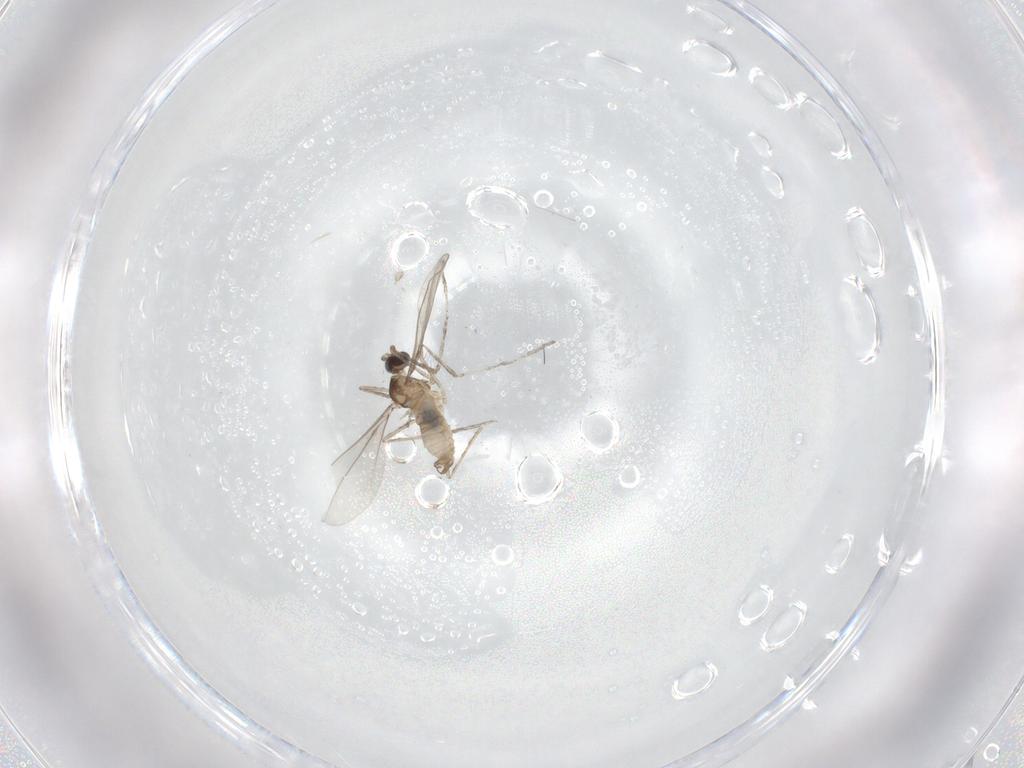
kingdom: Animalia
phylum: Arthropoda
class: Insecta
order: Diptera
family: Cecidomyiidae
